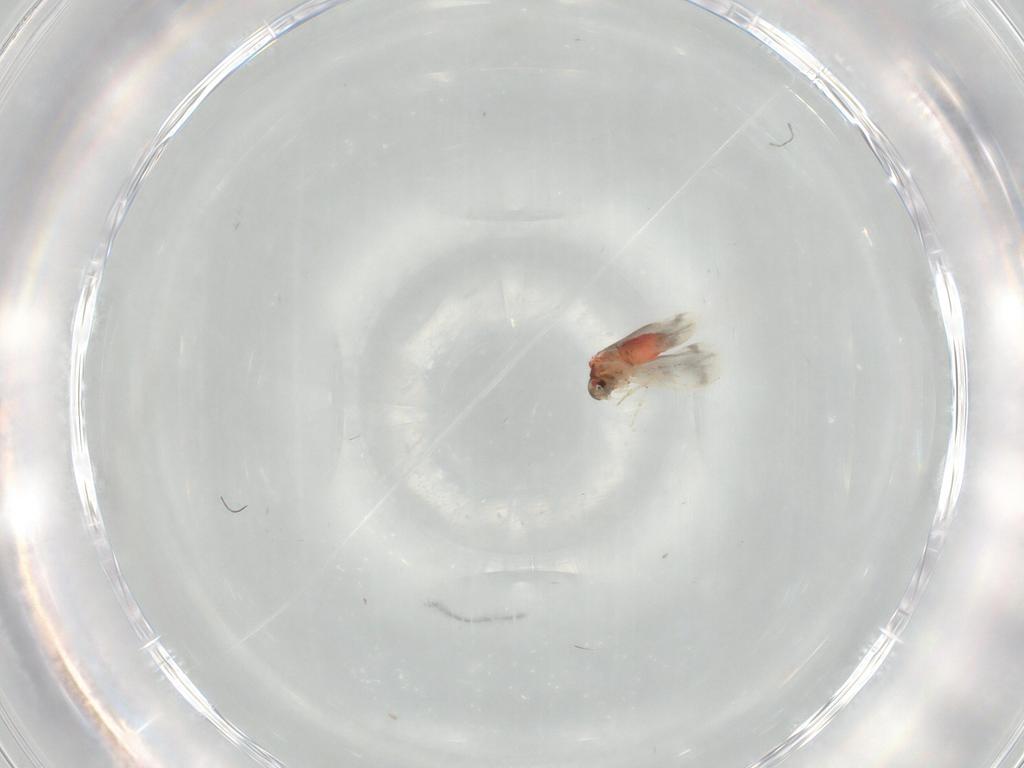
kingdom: Animalia
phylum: Arthropoda
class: Insecta
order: Hemiptera
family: Aleyrodidae
